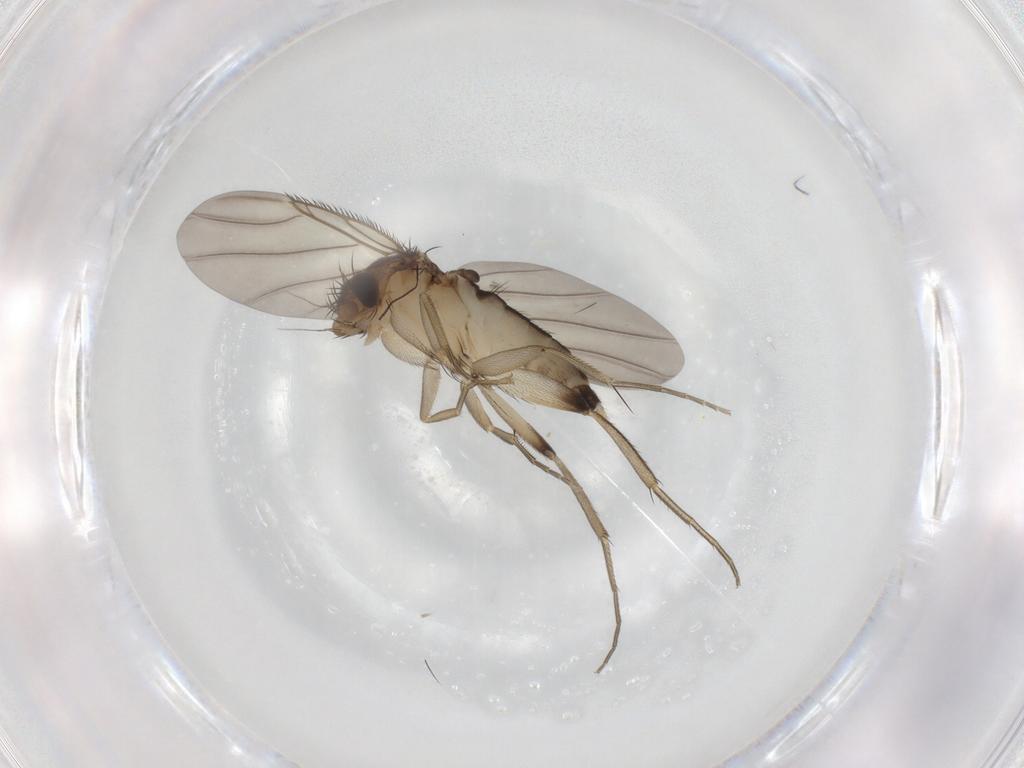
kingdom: Animalia
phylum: Arthropoda
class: Insecta
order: Diptera
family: Phoridae
